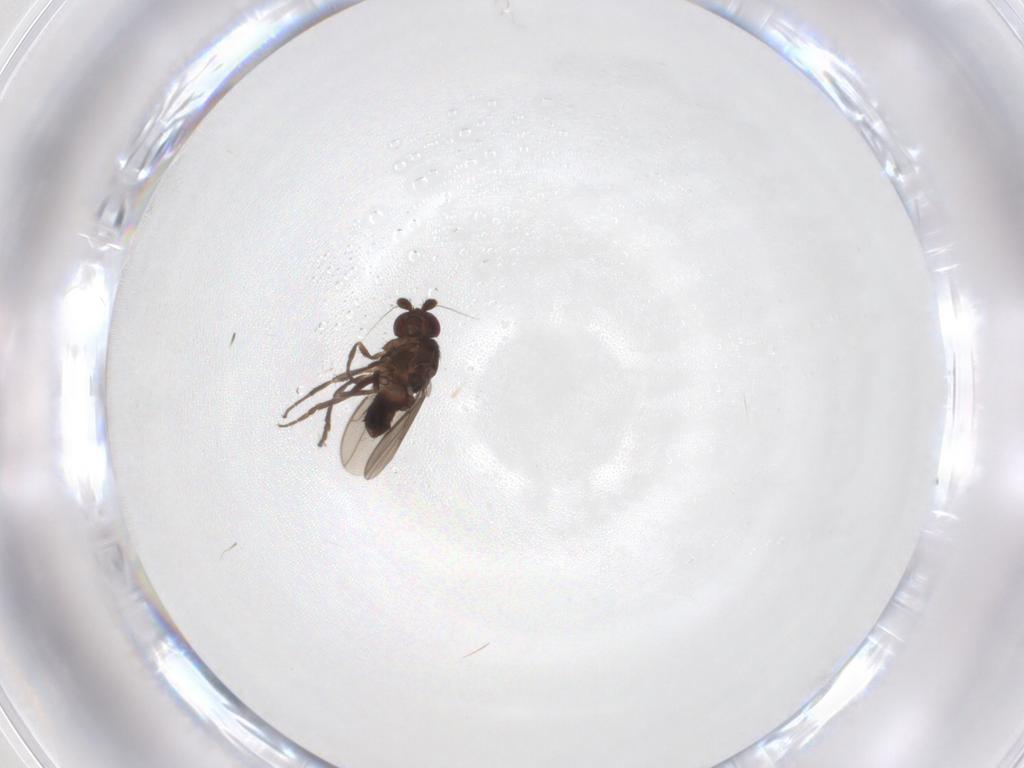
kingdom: Animalia
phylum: Arthropoda
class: Insecta
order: Diptera
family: Sphaeroceridae
